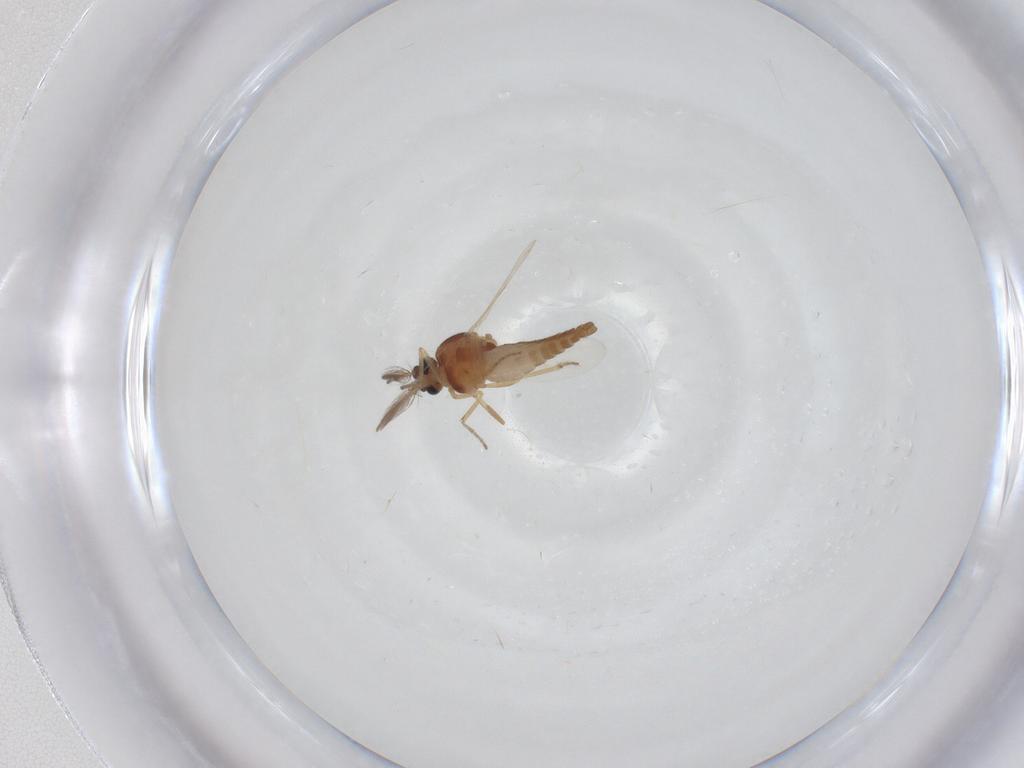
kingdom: Animalia
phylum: Arthropoda
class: Insecta
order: Diptera
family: Ceratopogonidae
